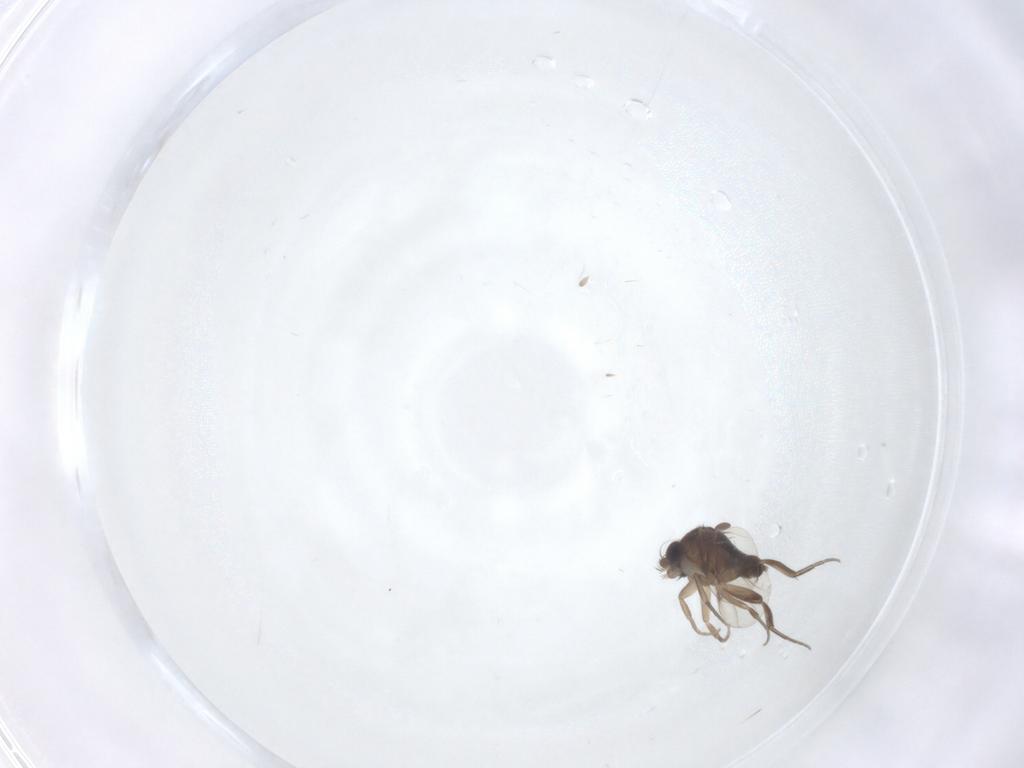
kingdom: Animalia
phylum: Arthropoda
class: Insecta
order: Diptera
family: Phoridae
